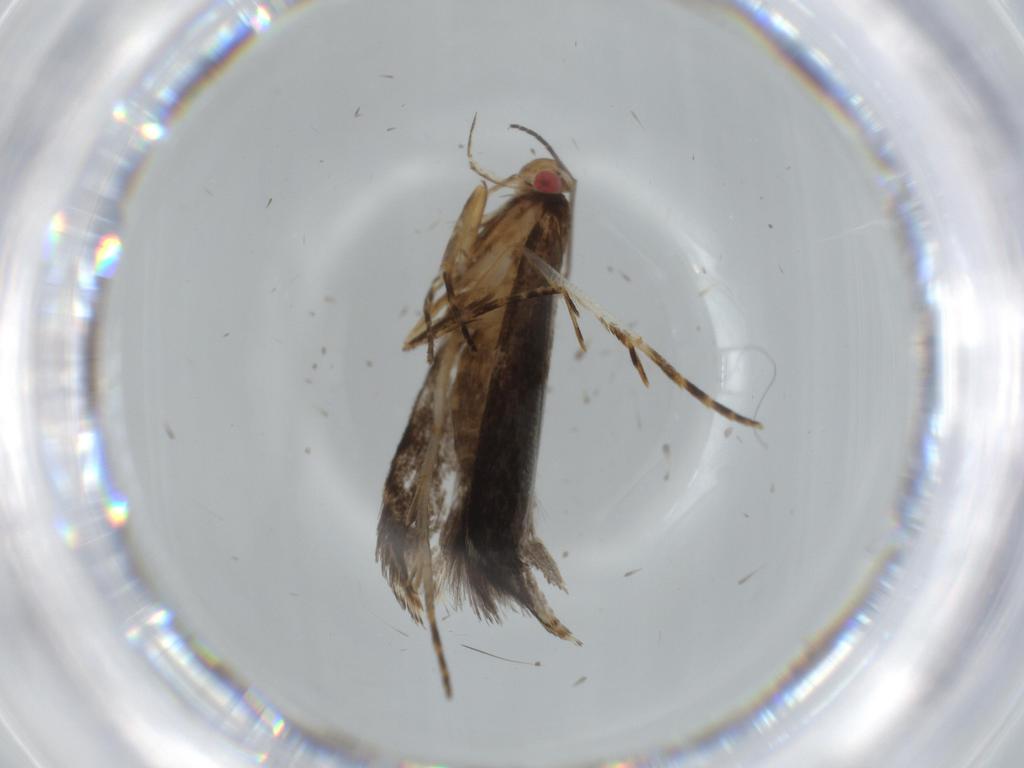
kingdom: Animalia
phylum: Arthropoda
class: Insecta
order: Lepidoptera
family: Gelechiidae
